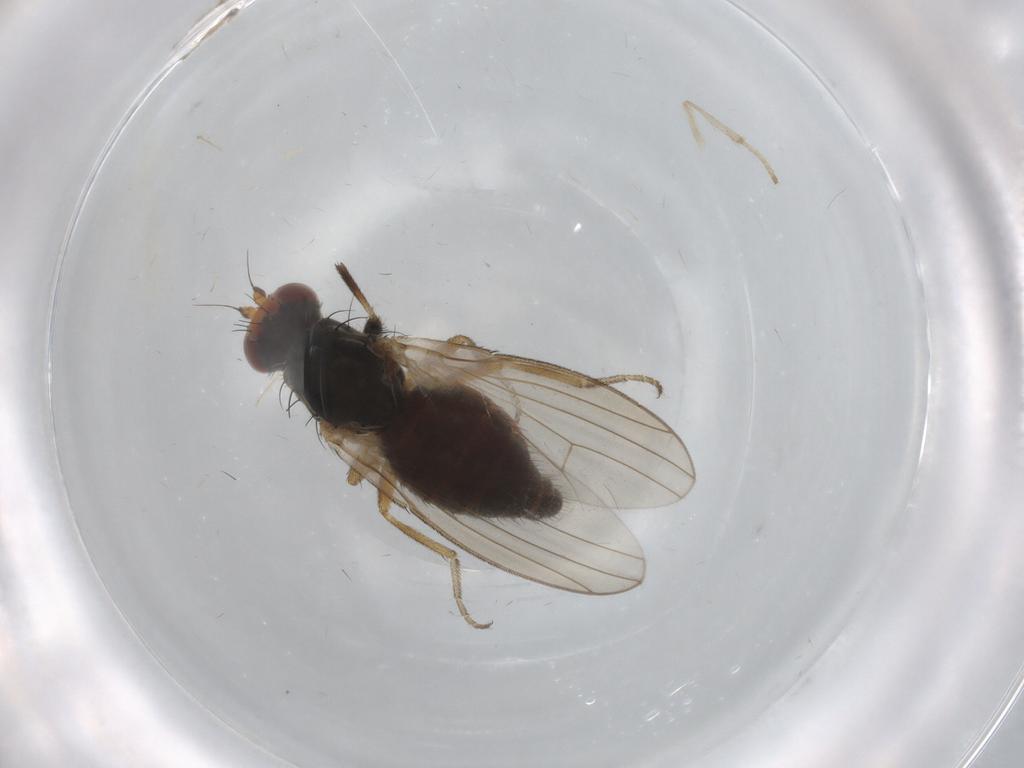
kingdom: Animalia
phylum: Arthropoda
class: Insecta
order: Diptera
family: Heleomyzidae
